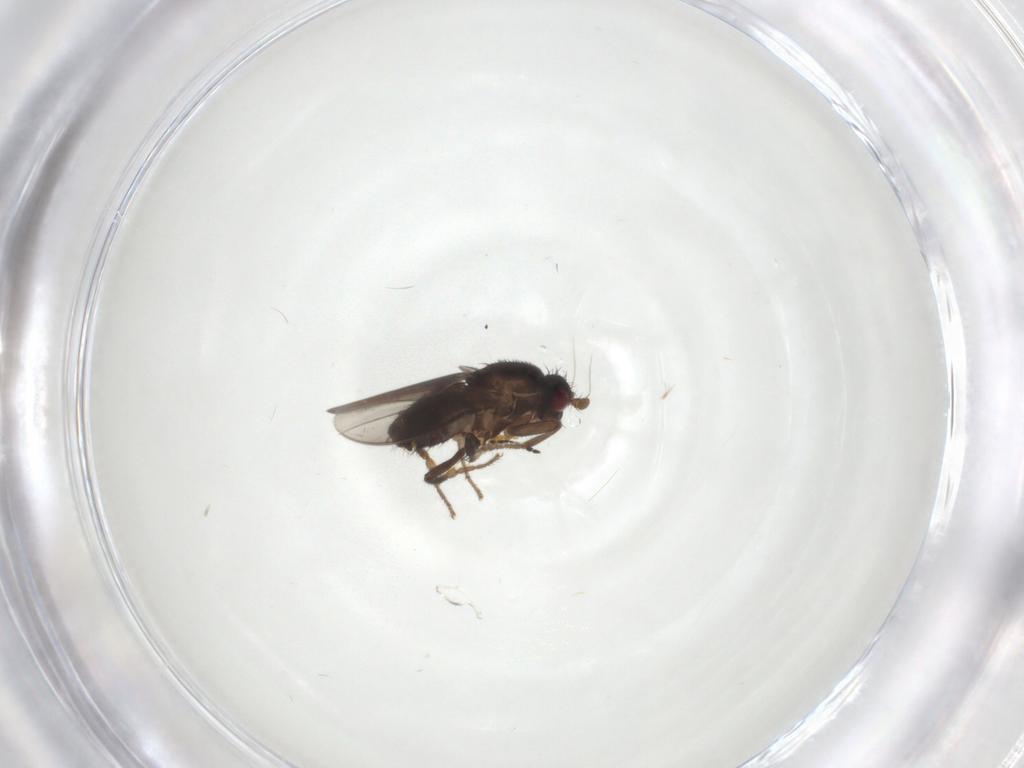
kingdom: Animalia
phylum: Arthropoda
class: Insecta
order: Diptera
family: Sphaeroceridae
